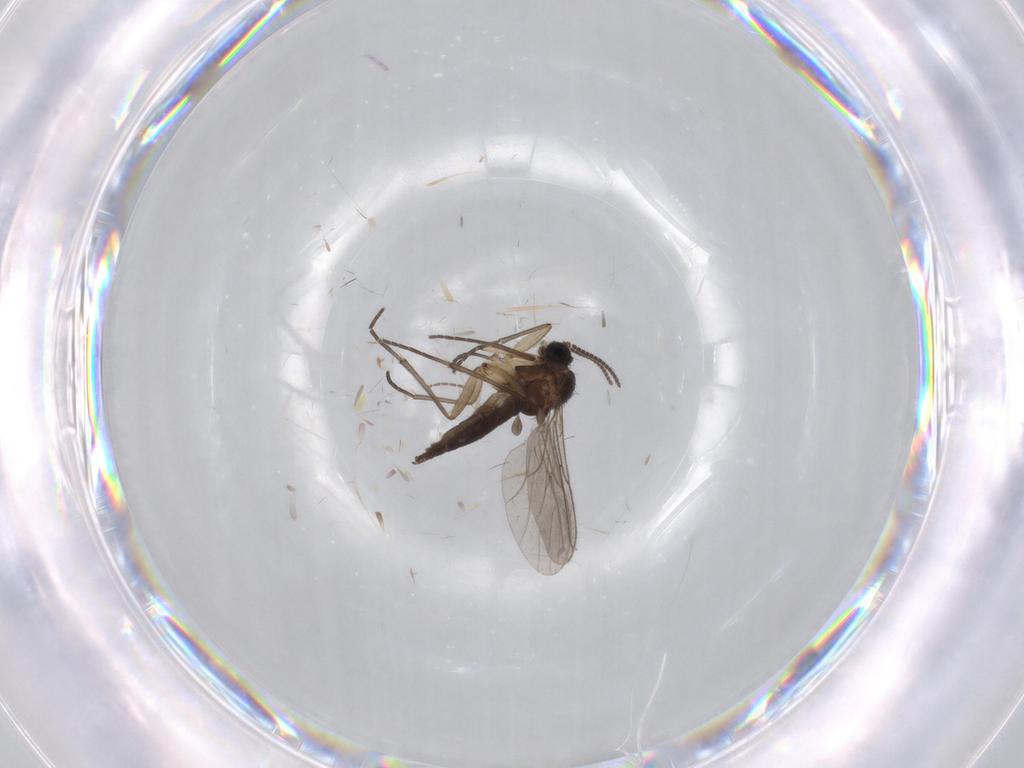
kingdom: Animalia
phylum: Arthropoda
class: Insecta
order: Diptera
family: Sciaridae
